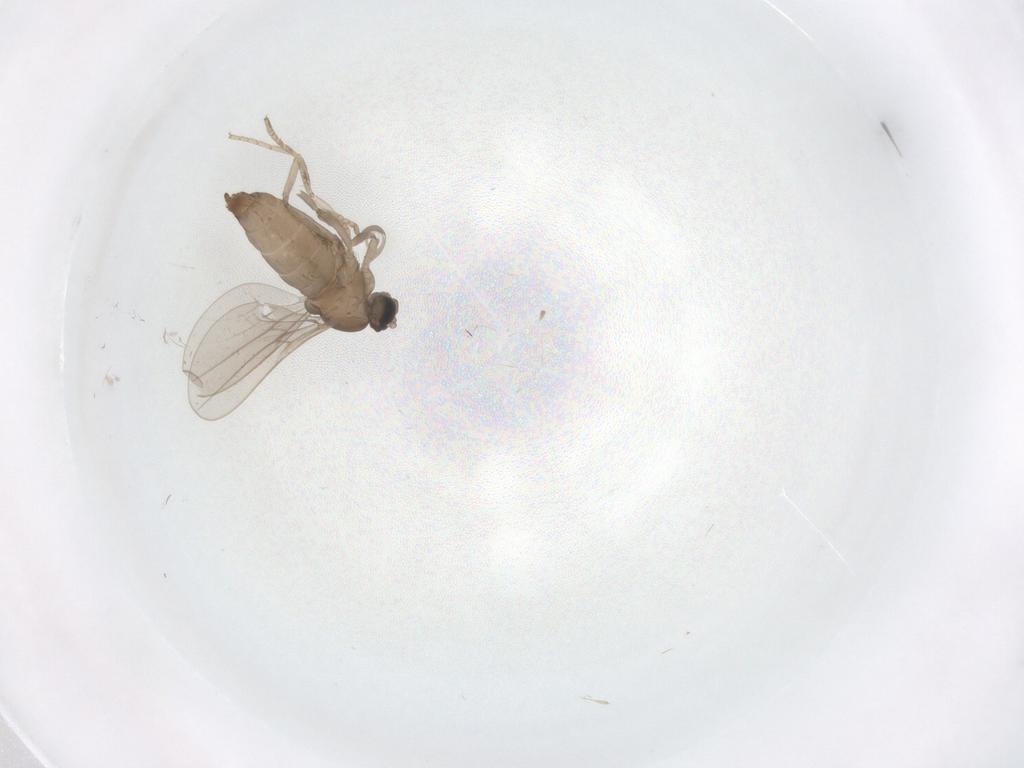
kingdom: Animalia
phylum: Arthropoda
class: Insecta
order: Diptera
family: Cecidomyiidae
